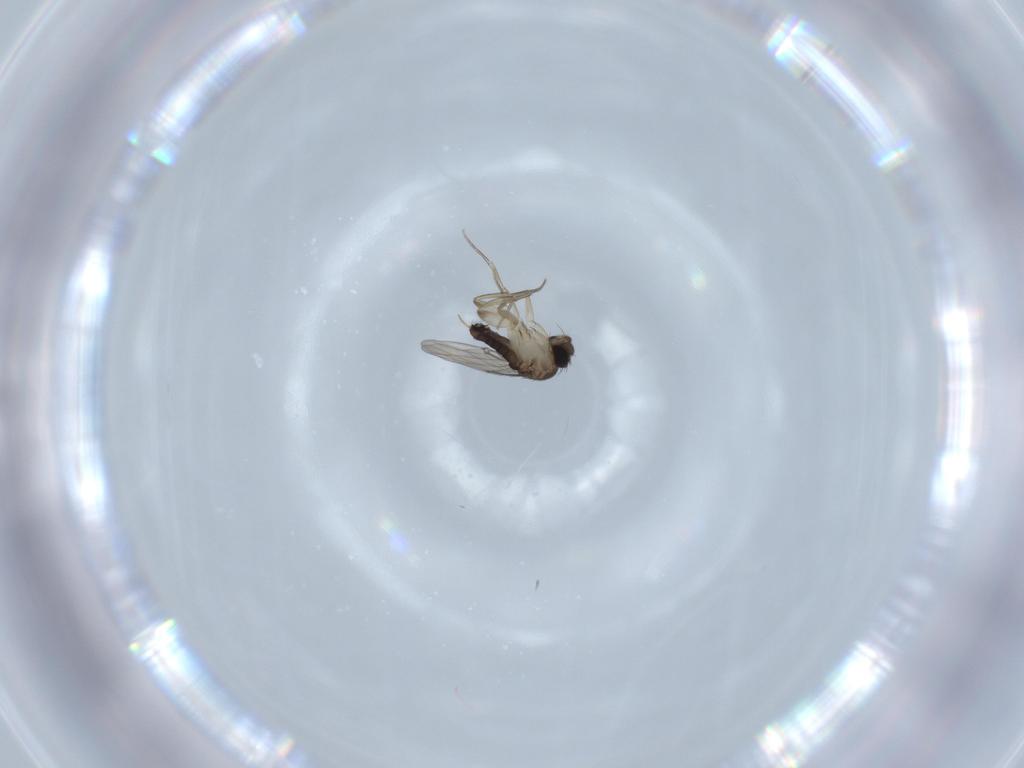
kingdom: Animalia
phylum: Arthropoda
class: Insecta
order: Diptera
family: Phoridae
